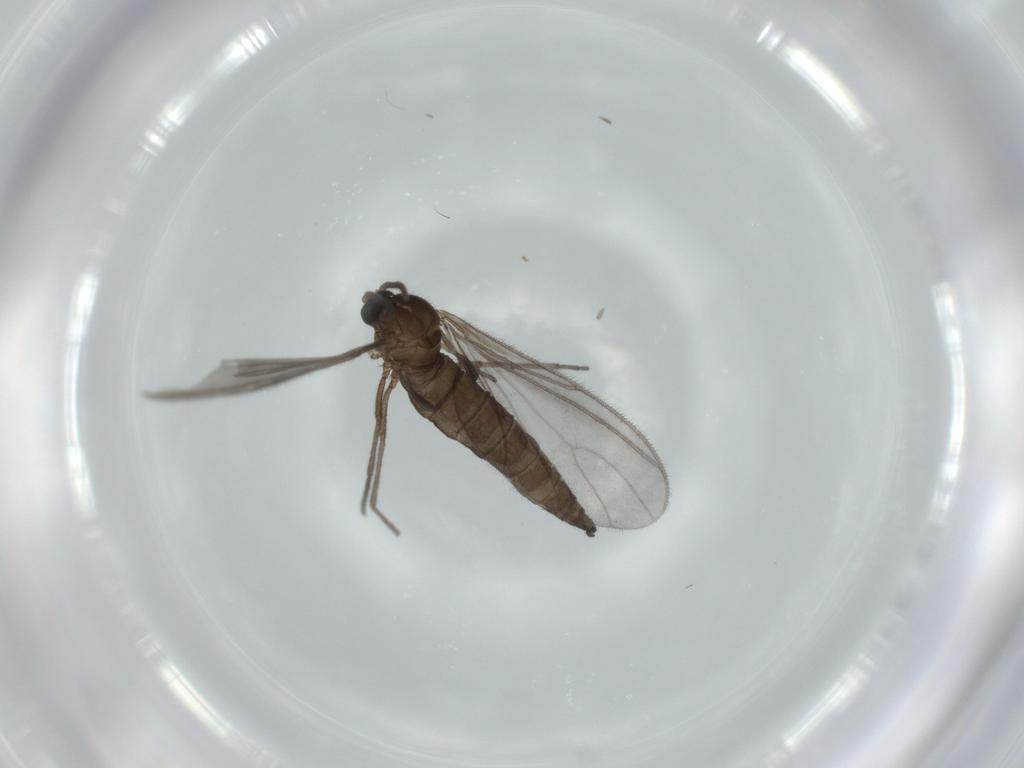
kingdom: Animalia
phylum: Arthropoda
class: Insecta
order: Diptera
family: Sciaridae
